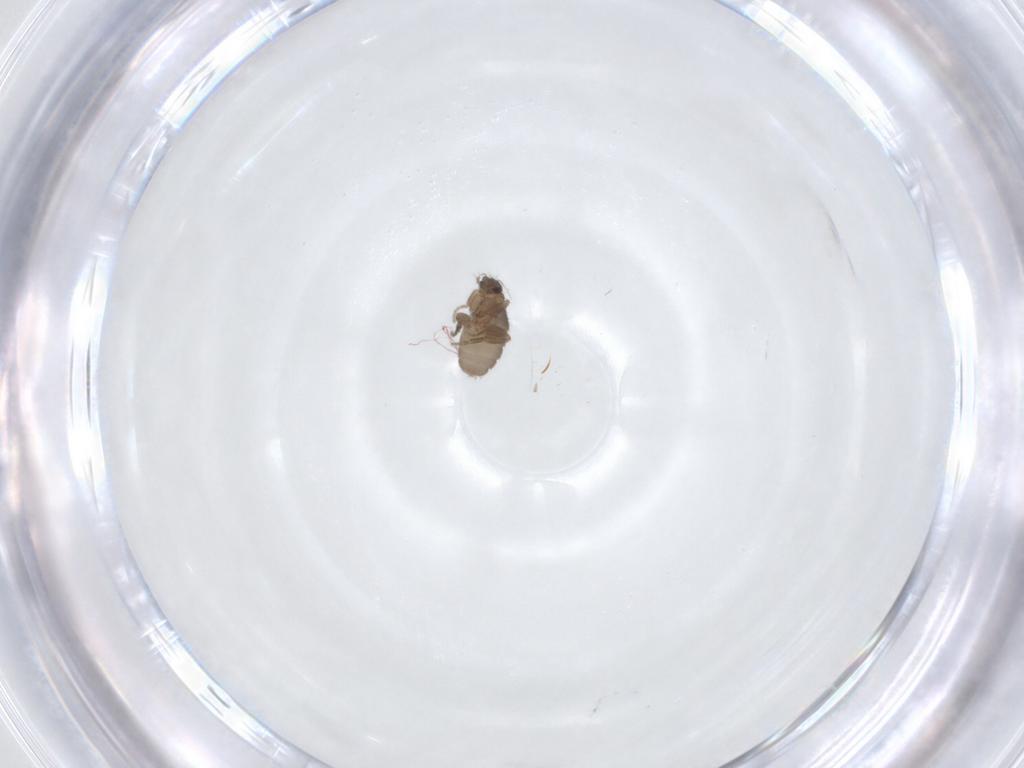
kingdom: Animalia
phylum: Arthropoda
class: Insecta
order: Diptera
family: Phoridae
